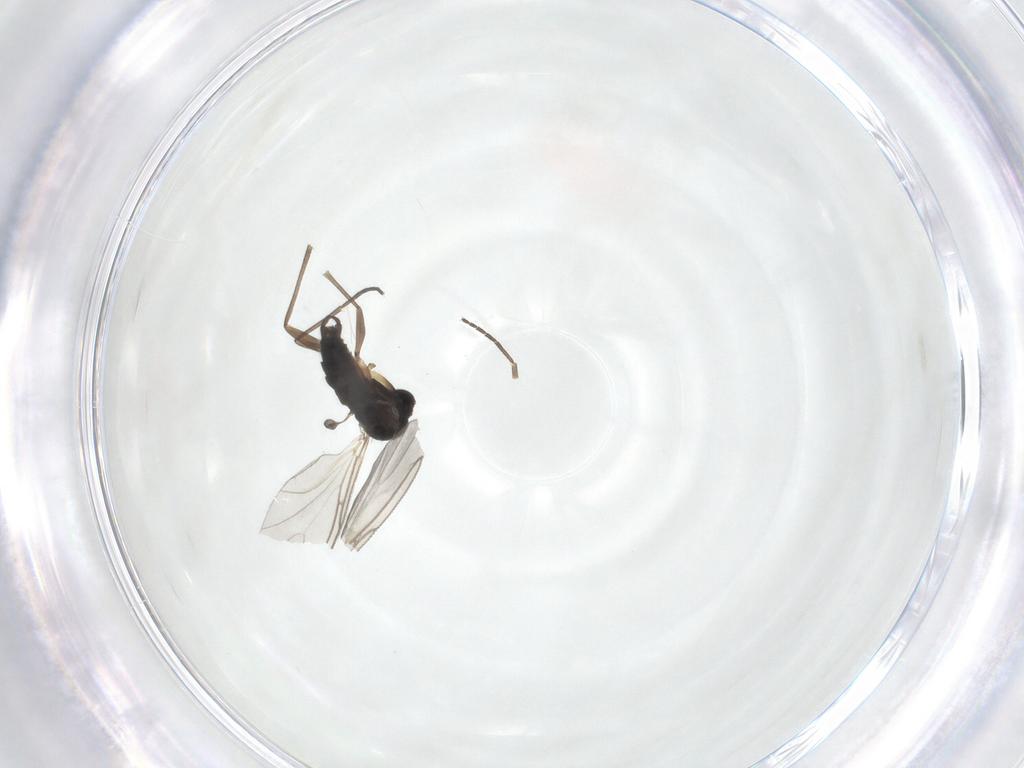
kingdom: Animalia
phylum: Arthropoda
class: Insecta
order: Diptera
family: Sciaridae
